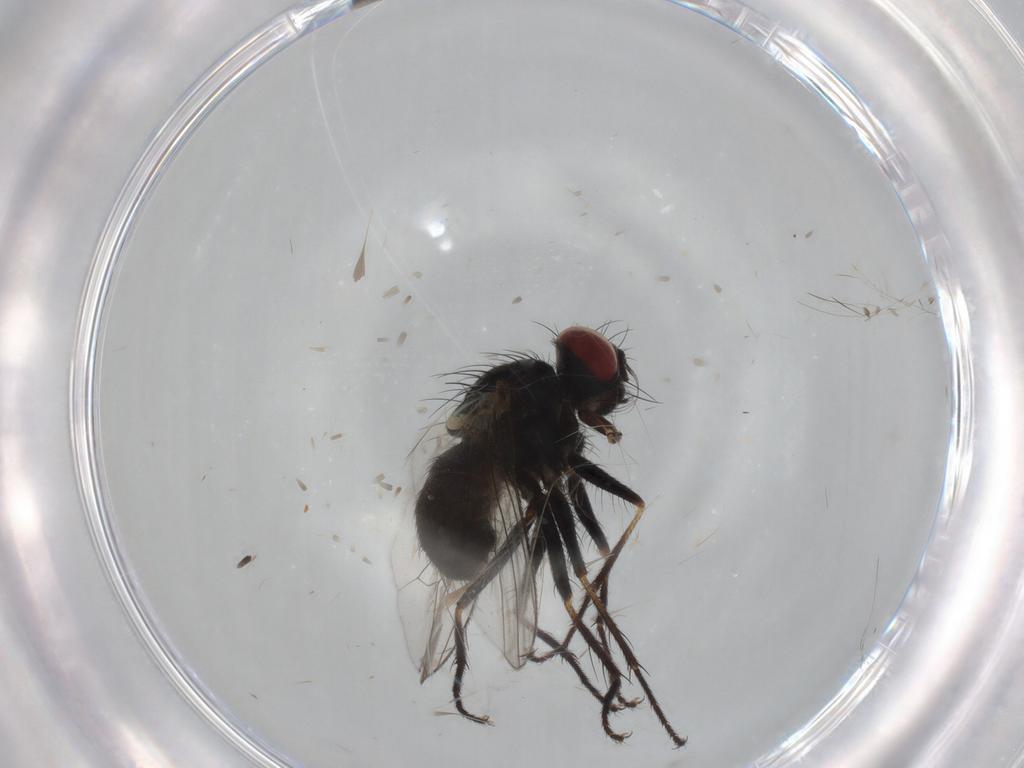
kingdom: Animalia
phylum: Arthropoda
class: Insecta
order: Diptera
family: Muscidae
